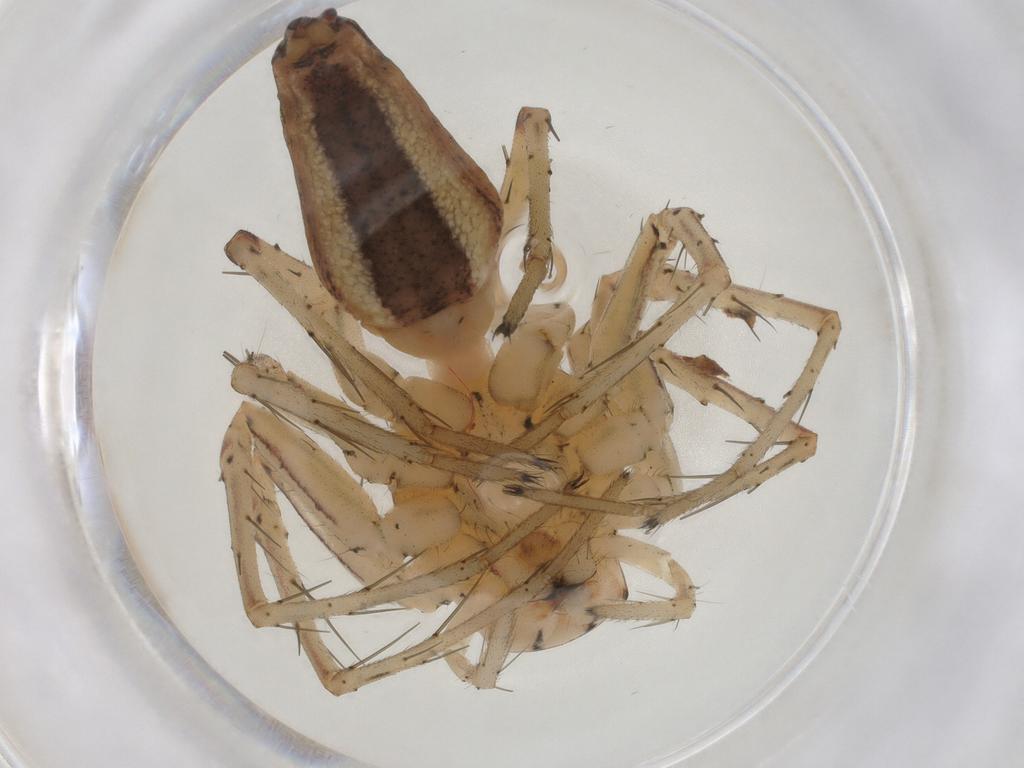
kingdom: Animalia
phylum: Arthropoda
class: Arachnida
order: Araneae
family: Oxyopidae
